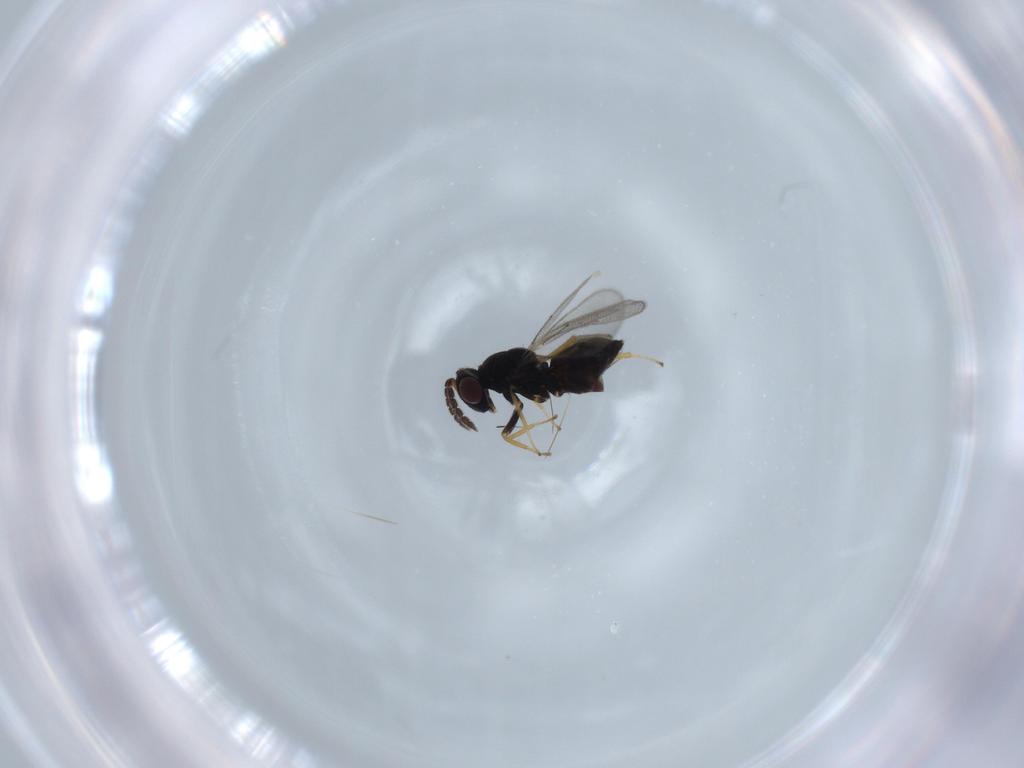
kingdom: Animalia
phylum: Arthropoda
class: Insecta
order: Hymenoptera
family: Eulophidae
